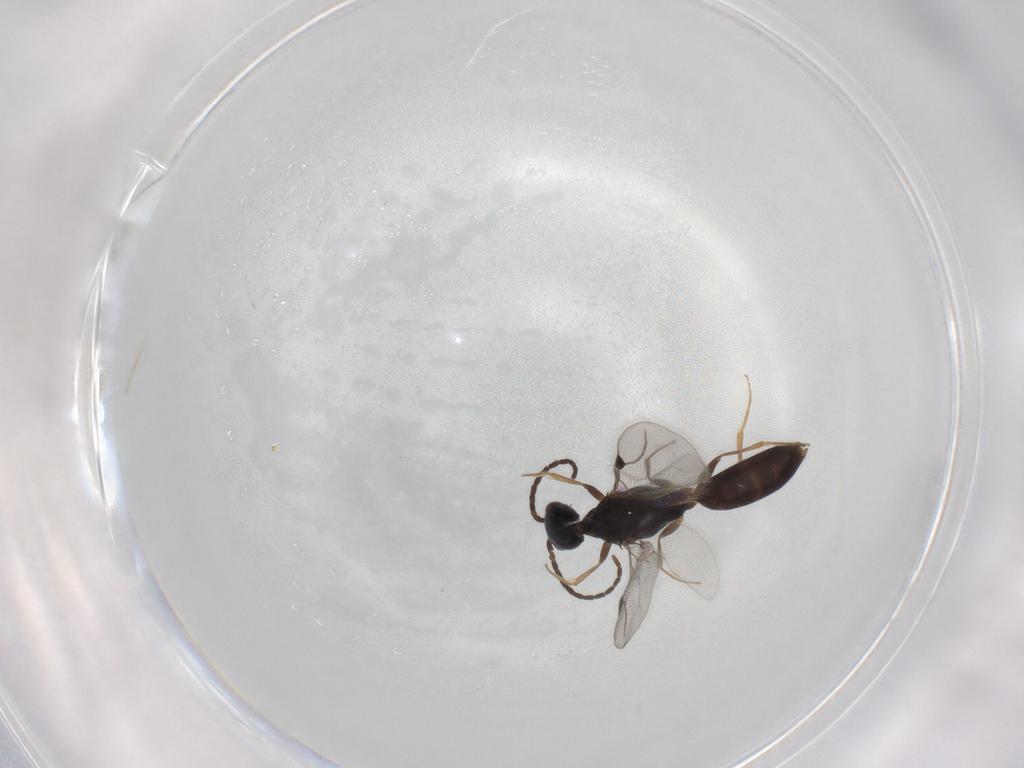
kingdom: Animalia
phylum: Arthropoda
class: Insecta
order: Hymenoptera
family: Bethylidae
